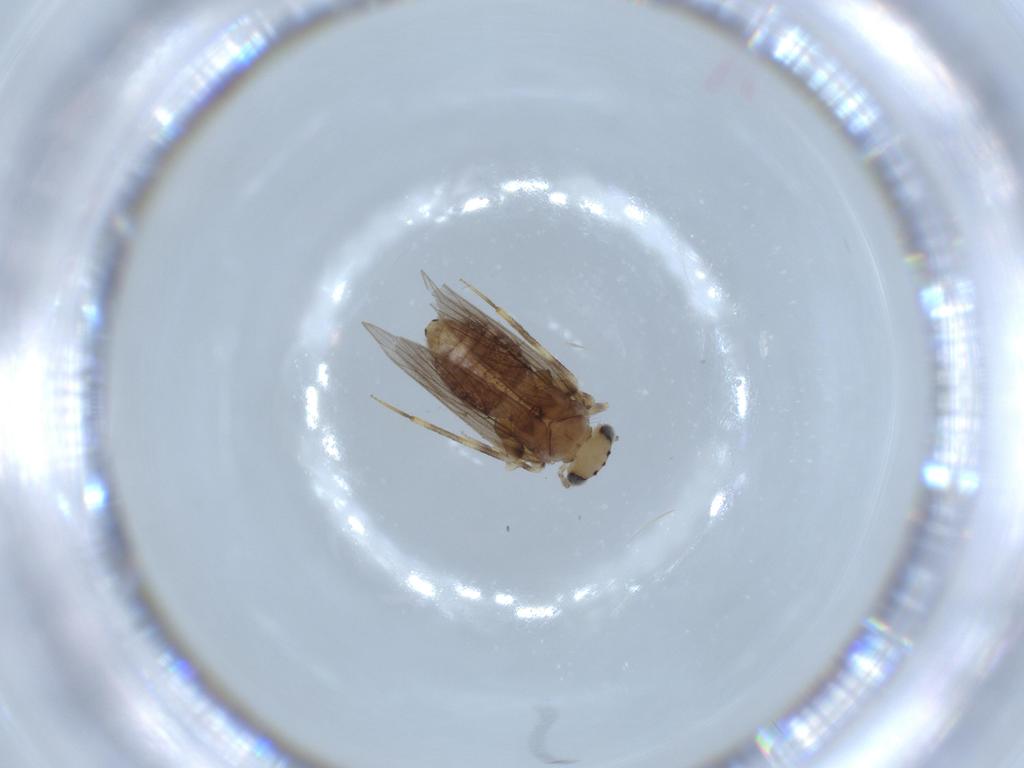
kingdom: Animalia
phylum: Arthropoda
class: Insecta
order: Psocodea
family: Lepidopsocidae
